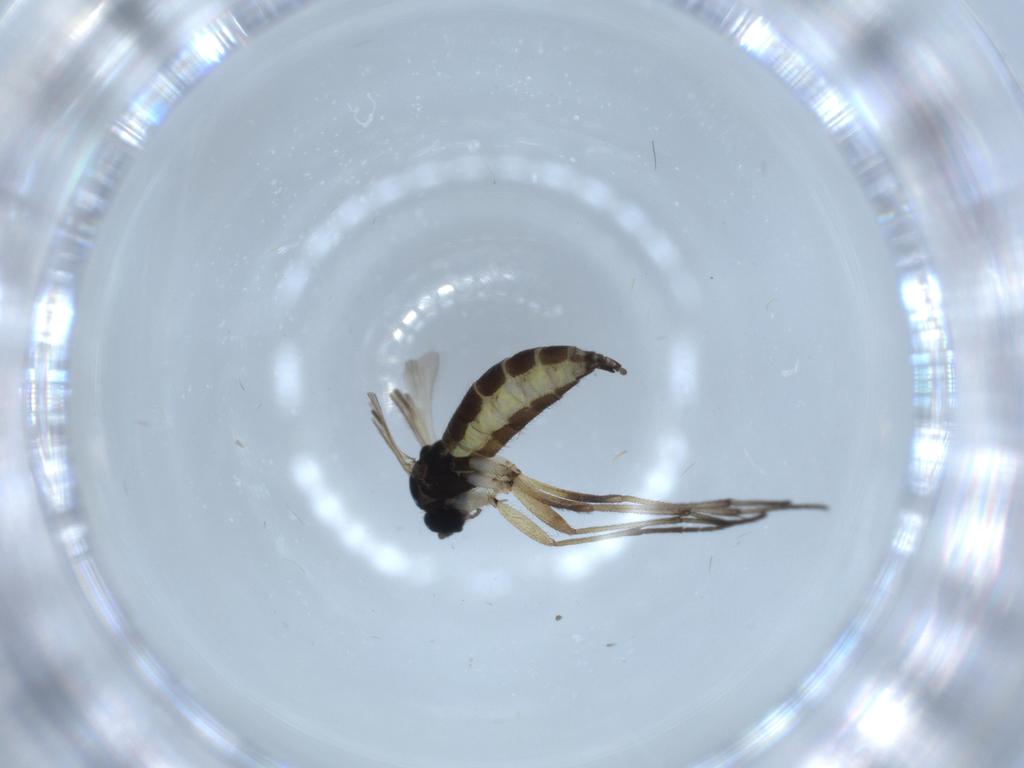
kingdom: Animalia
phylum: Arthropoda
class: Insecta
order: Diptera
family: Sciaridae
